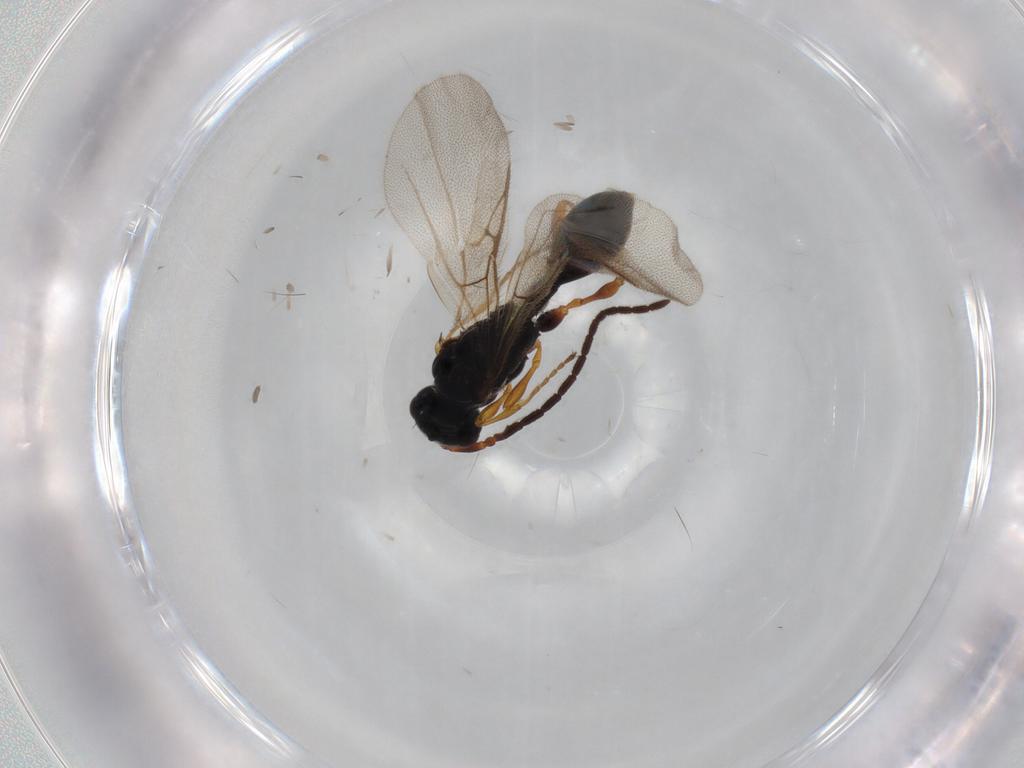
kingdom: Animalia
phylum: Arthropoda
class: Insecta
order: Hymenoptera
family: Diapriidae
